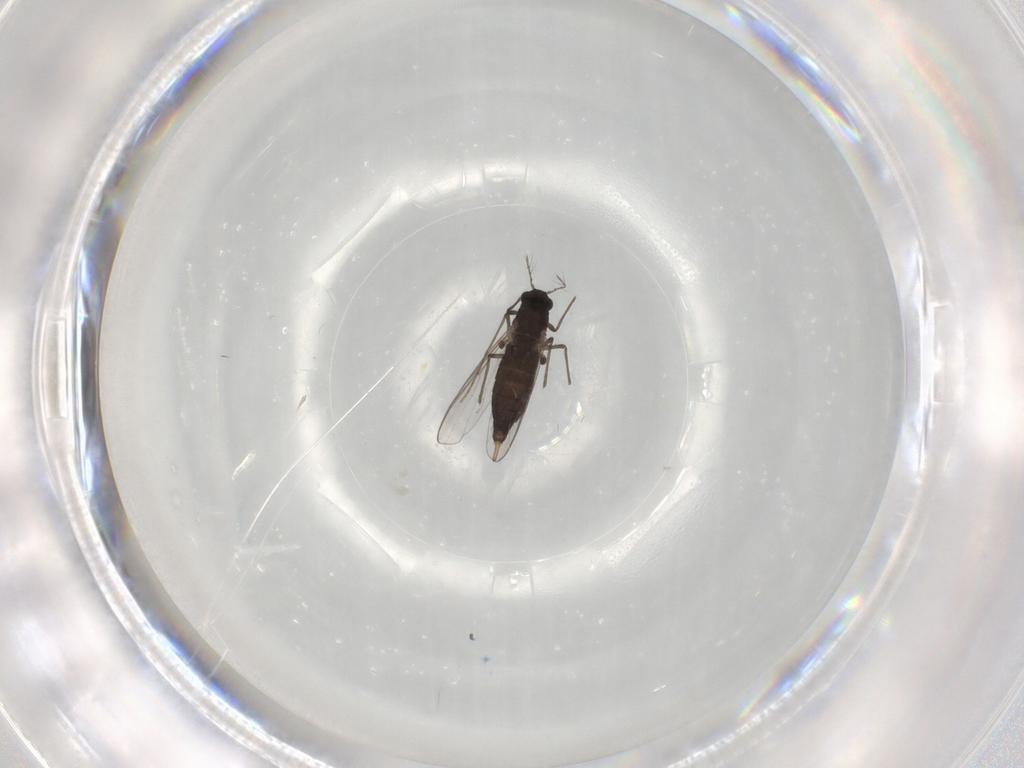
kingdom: Animalia
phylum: Arthropoda
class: Insecta
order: Diptera
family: Chironomidae
